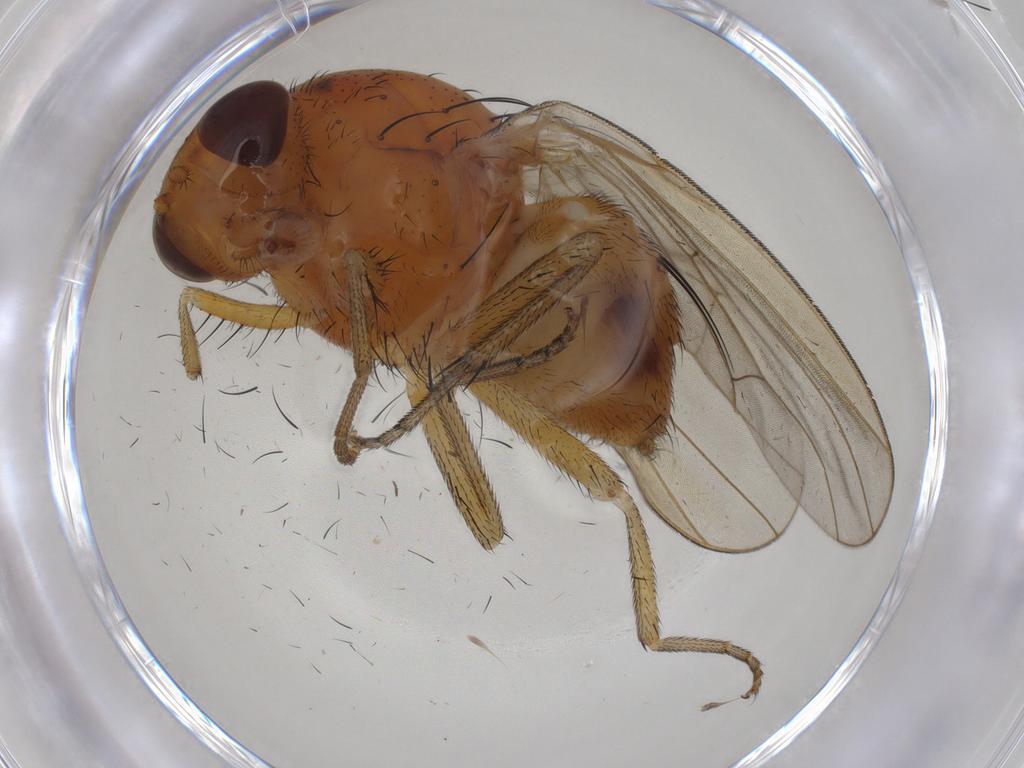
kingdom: Animalia
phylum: Arthropoda
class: Insecta
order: Diptera
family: Phoridae
